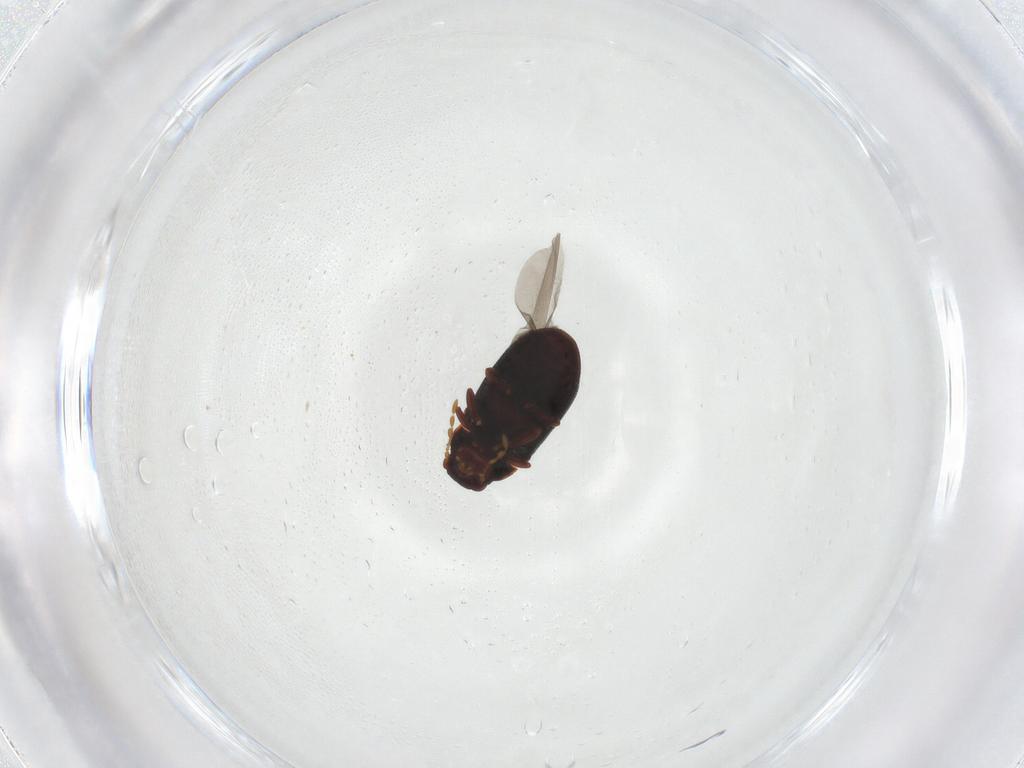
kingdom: Animalia
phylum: Arthropoda
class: Insecta
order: Coleoptera
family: Ptinidae
